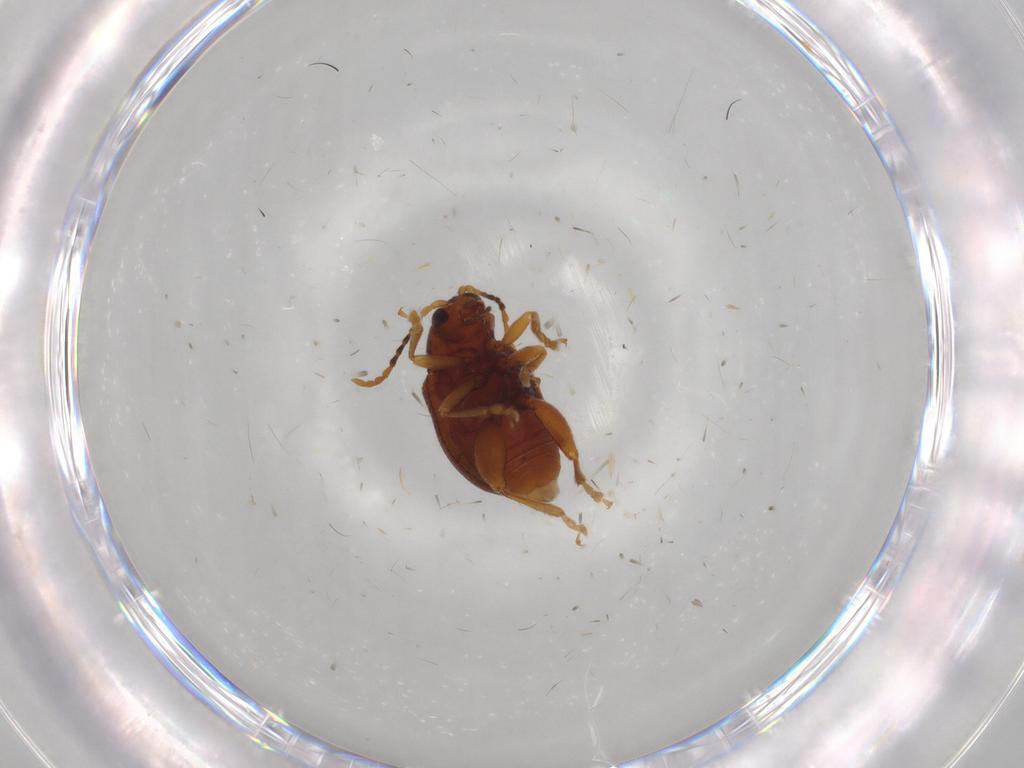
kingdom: Animalia
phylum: Arthropoda
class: Insecta
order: Coleoptera
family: Chrysomelidae
